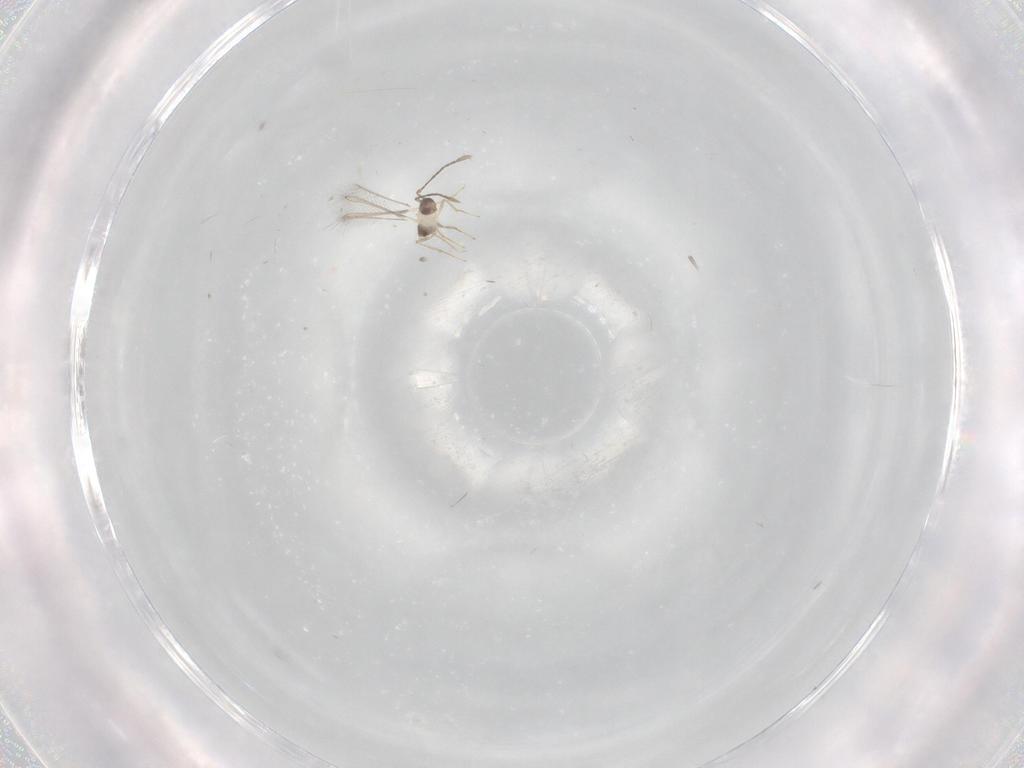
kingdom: Animalia
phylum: Arthropoda
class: Insecta
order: Hymenoptera
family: Mymaridae
